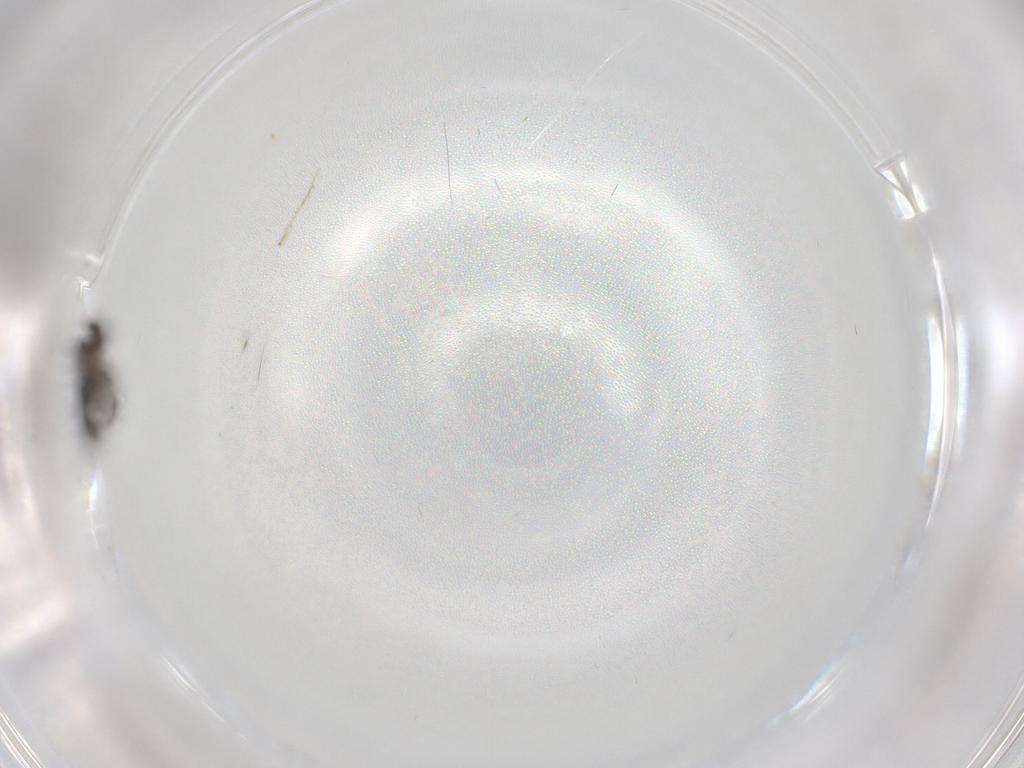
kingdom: Animalia
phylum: Arthropoda
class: Insecta
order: Diptera
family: Phoridae
